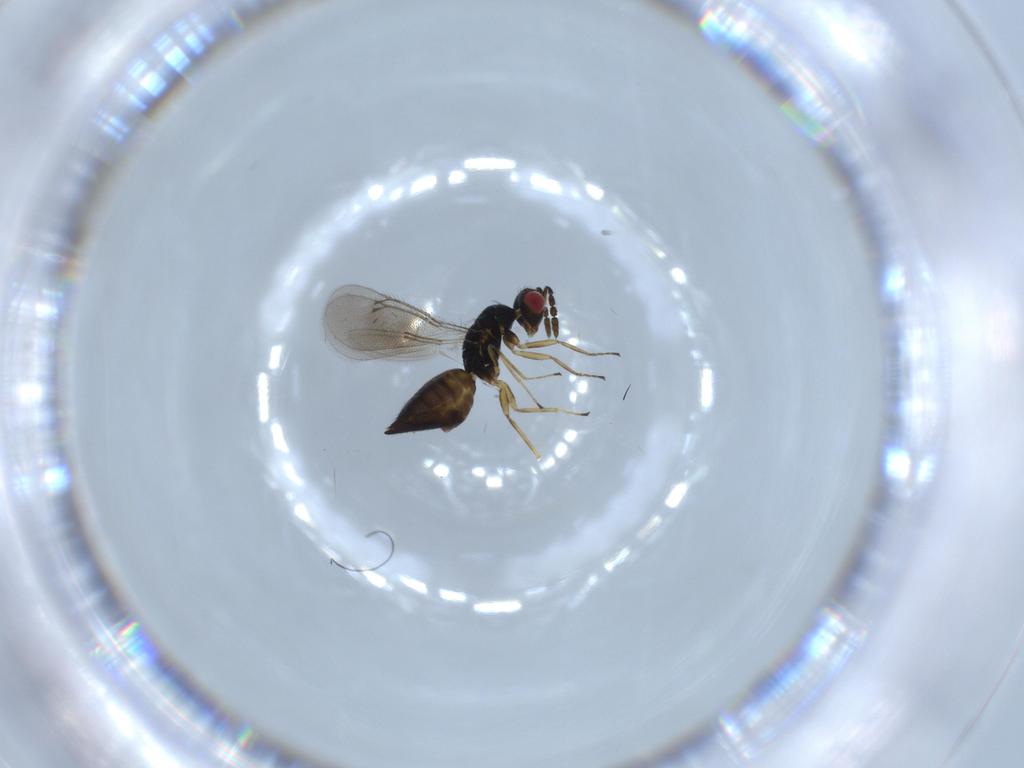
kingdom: Animalia
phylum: Arthropoda
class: Insecta
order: Hymenoptera
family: Eulophidae
